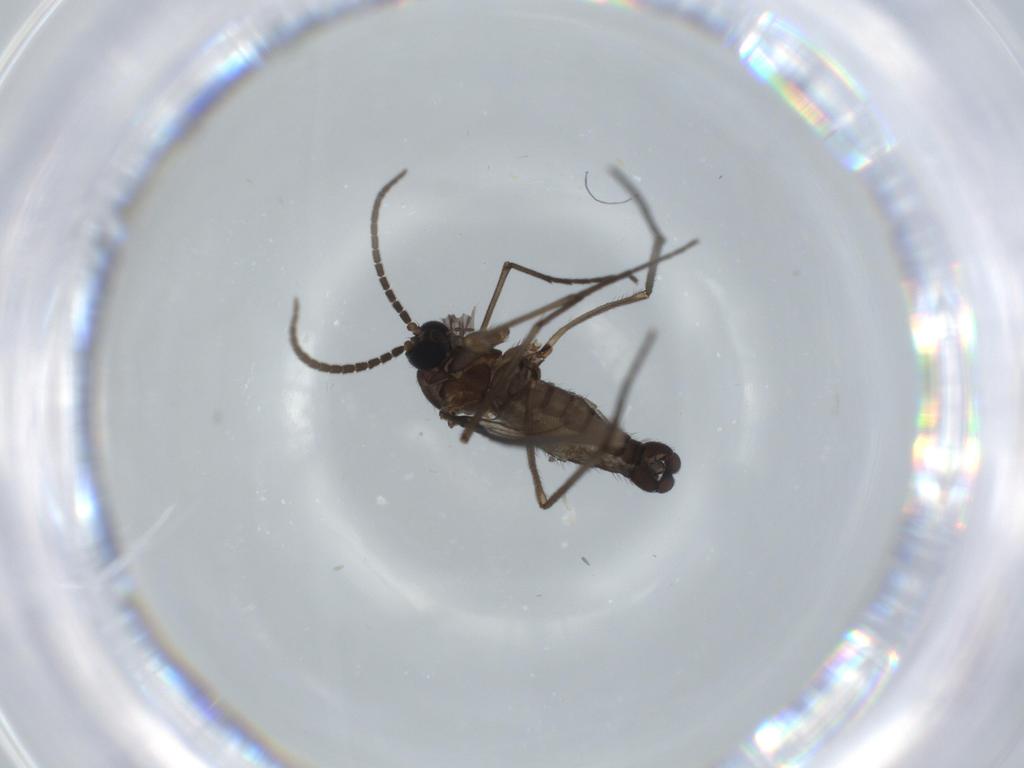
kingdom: Animalia
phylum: Arthropoda
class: Insecta
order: Diptera
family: Sciaridae
